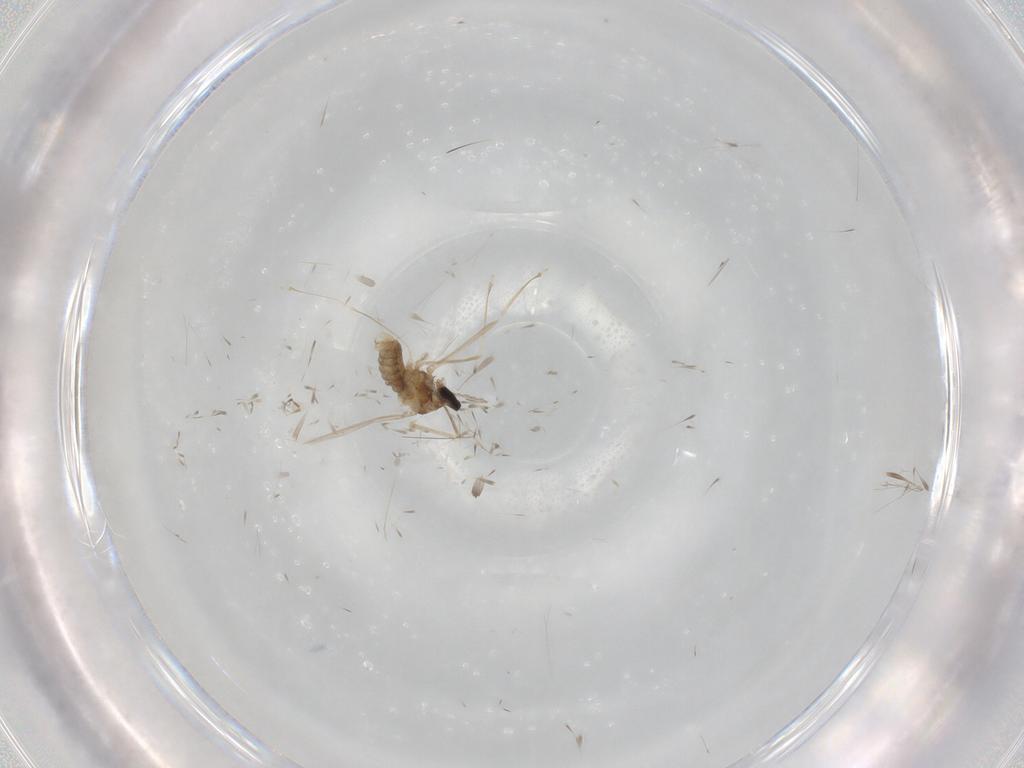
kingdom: Animalia
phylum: Arthropoda
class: Insecta
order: Diptera
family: Cecidomyiidae
